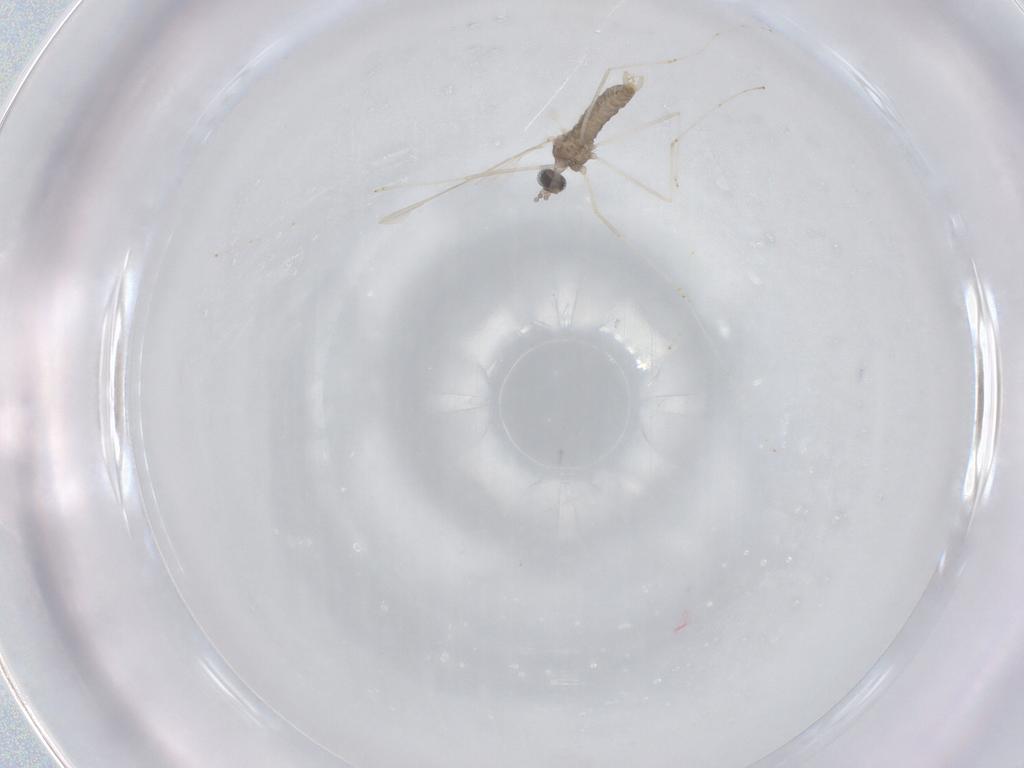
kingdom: Animalia
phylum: Arthropoda
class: Insecta
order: Diptera
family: Cecidomyiidae
